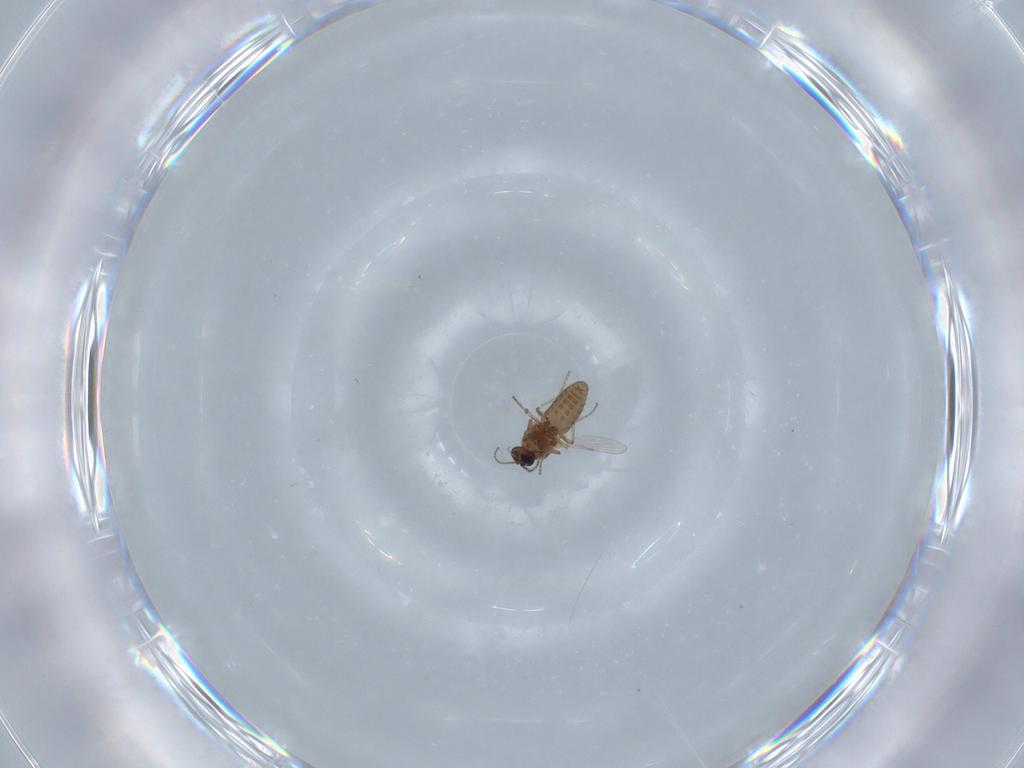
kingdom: Animalia
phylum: Arthropoda
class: Insecta
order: Diptera
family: Ceratopogonidae
